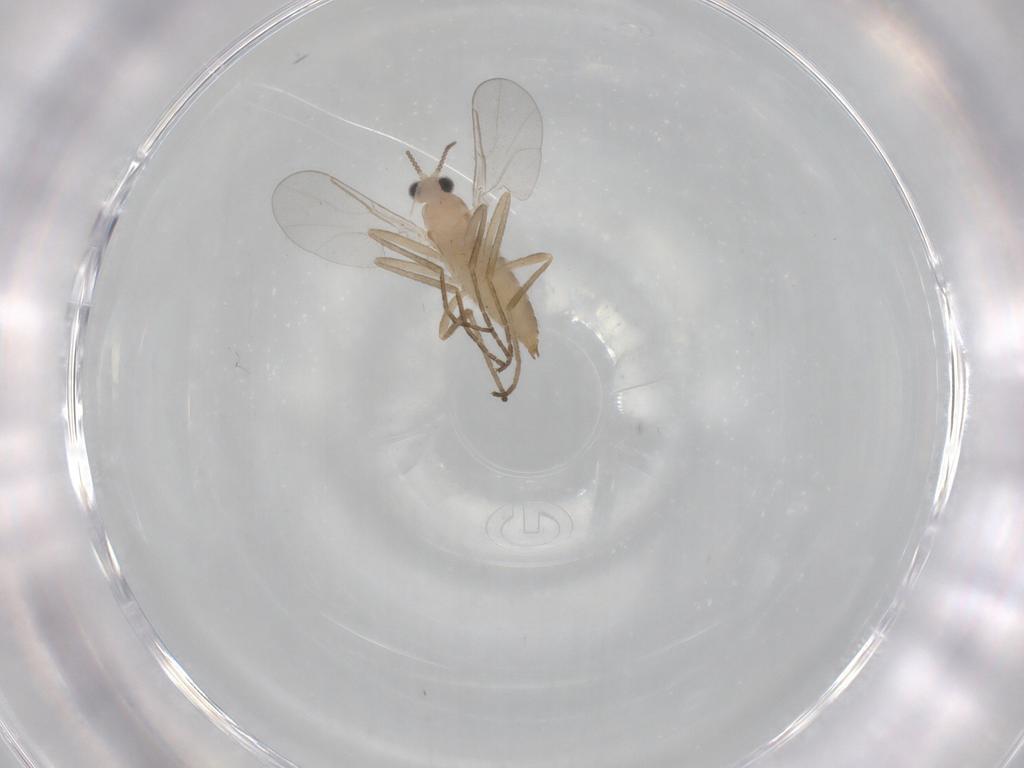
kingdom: Animalia
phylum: Arthropoda
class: Insecta
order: Diptera
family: Cecidomyiidae
